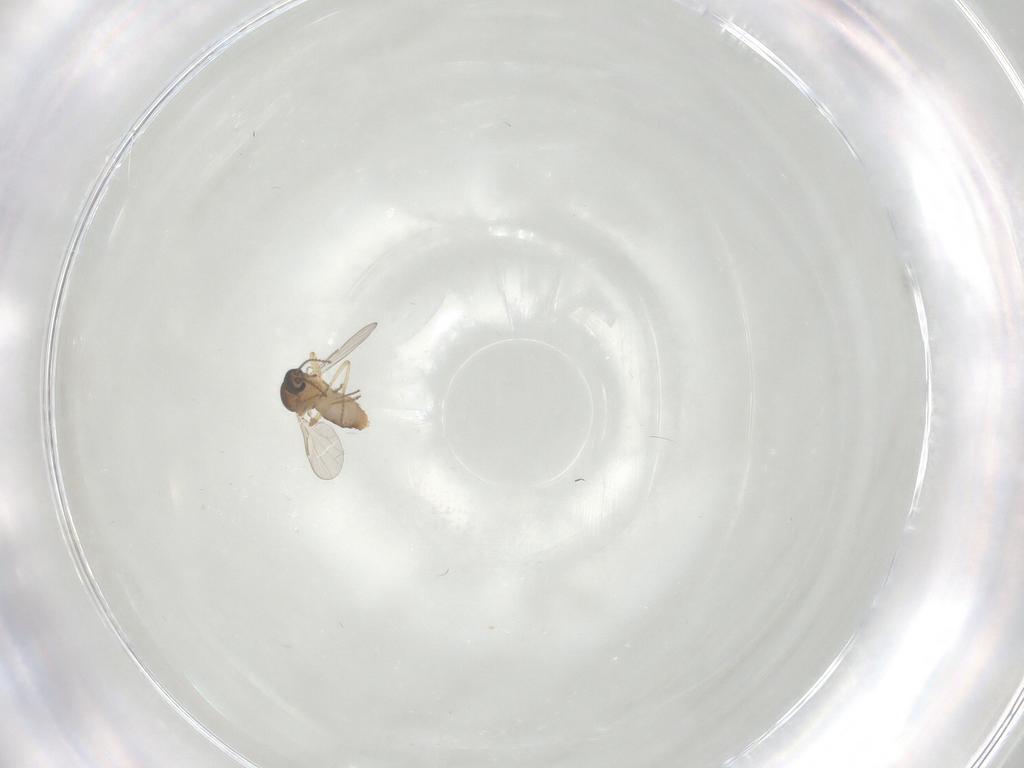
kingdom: Animalia
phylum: Arthropoda
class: Insecta
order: Diptera
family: Ceratopogonidae
